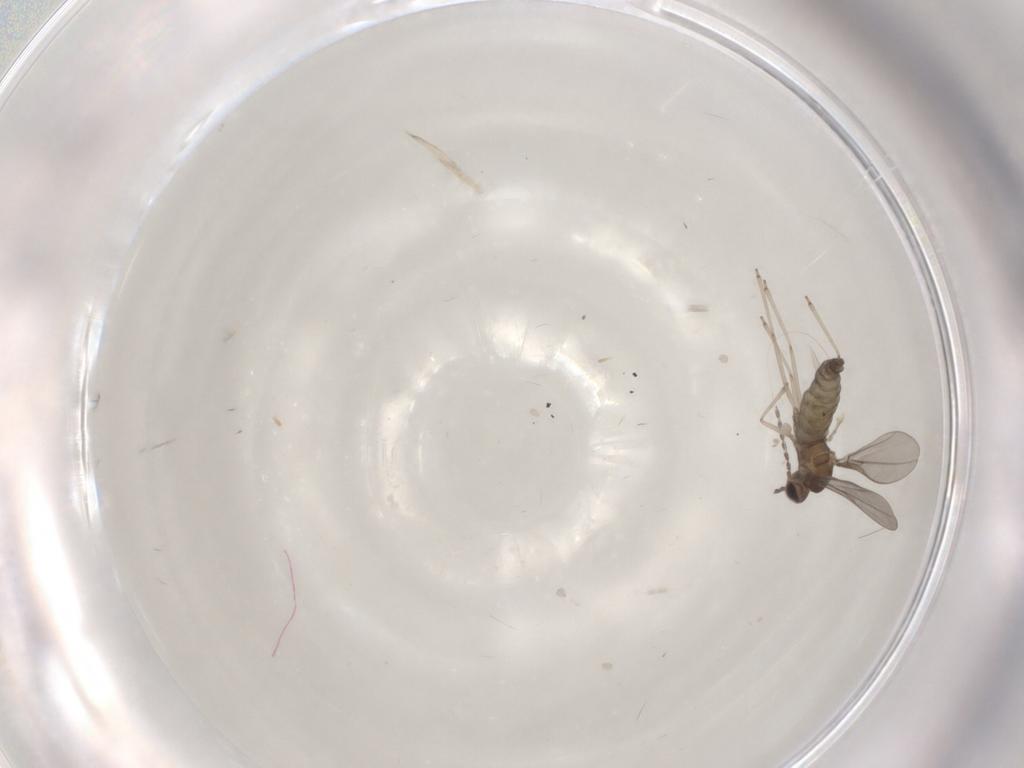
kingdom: Animalia
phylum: Arthropoda
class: Insecta
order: Diptera
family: Cecidomyiidae
